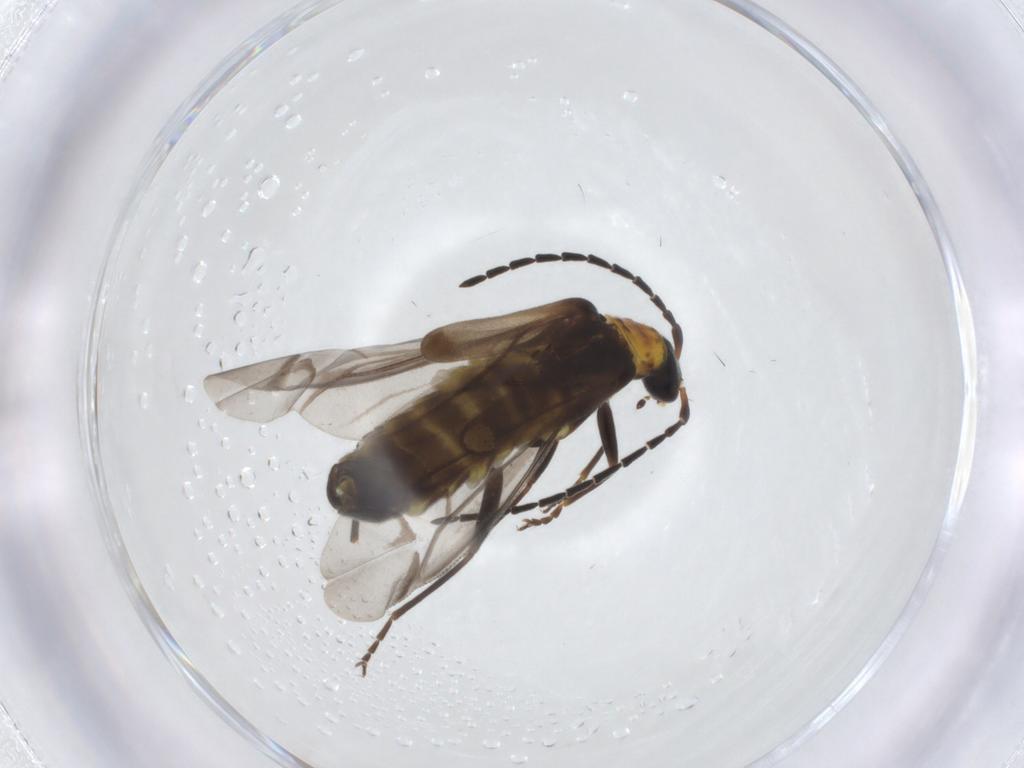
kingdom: Animalia
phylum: Arthropoda
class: Insecta
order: Coleoptera
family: Cantharidae
